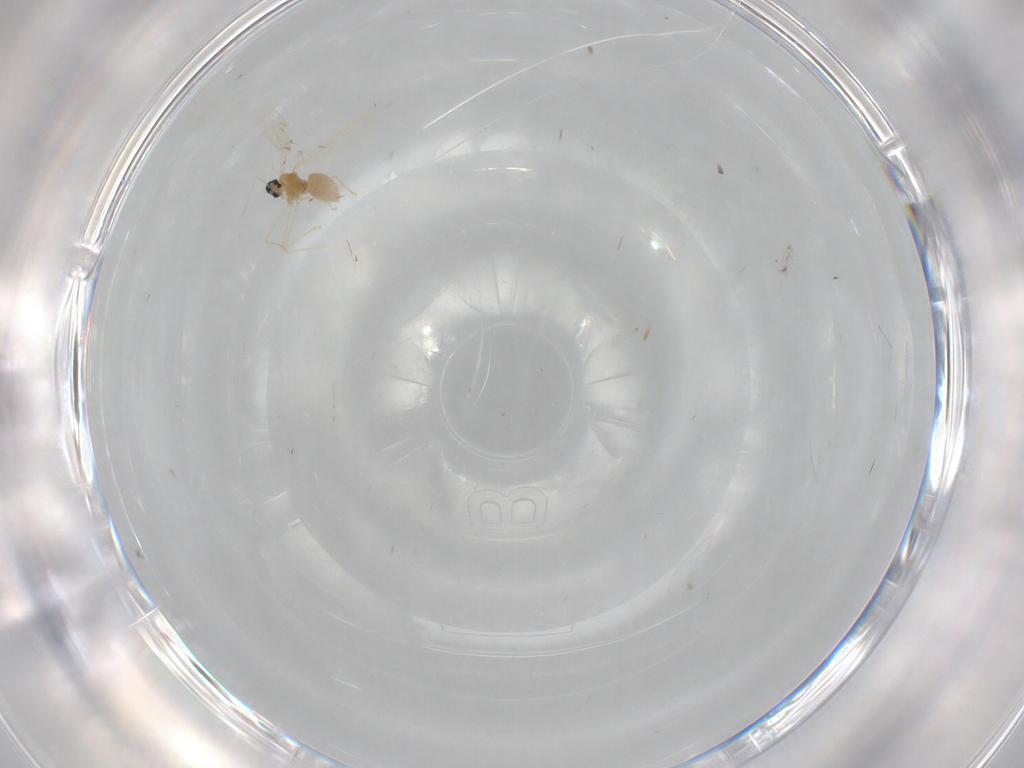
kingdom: Animalia
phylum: Arthropoda
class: Insecta
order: Diptera
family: Cecidomyiidae
